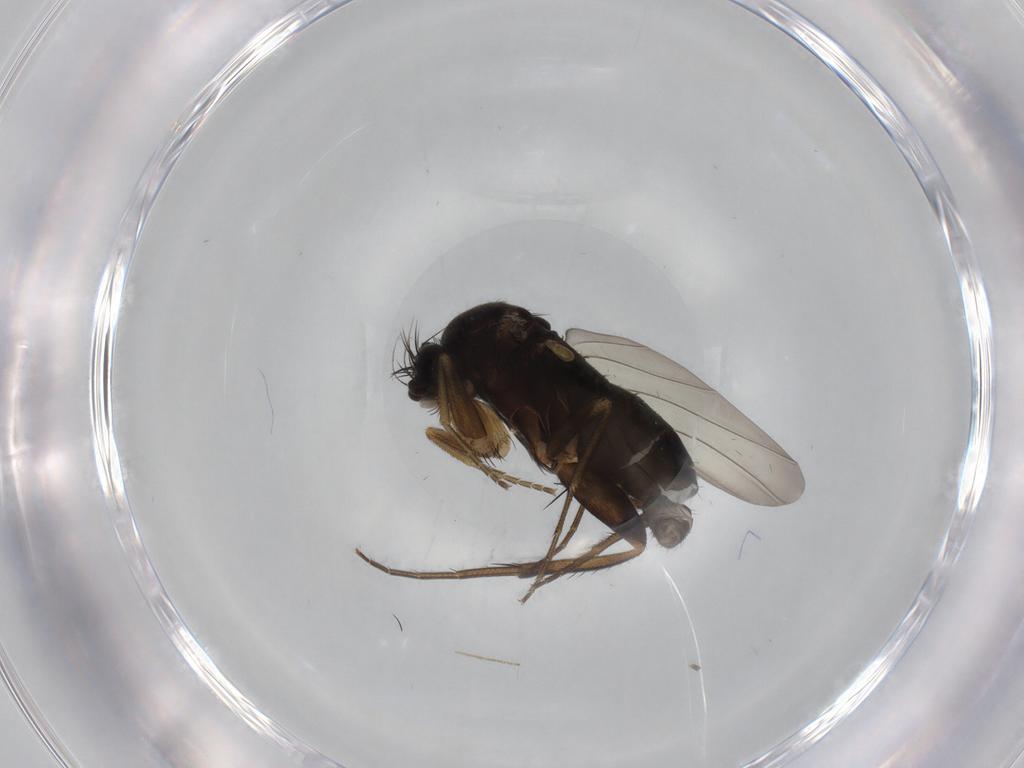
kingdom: Animalia
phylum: Arthropoda
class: Insecta
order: Diptera
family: Phoridae
